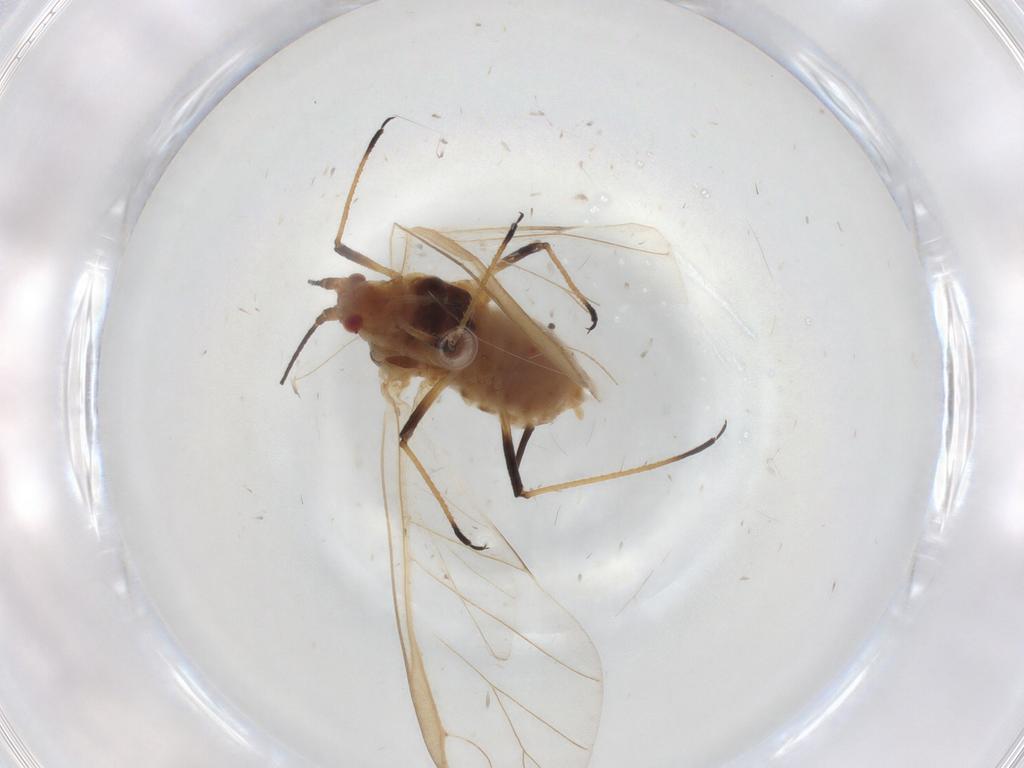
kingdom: Animalia
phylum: Arthropoda
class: Insecta
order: Hemiptera
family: Aphididae
